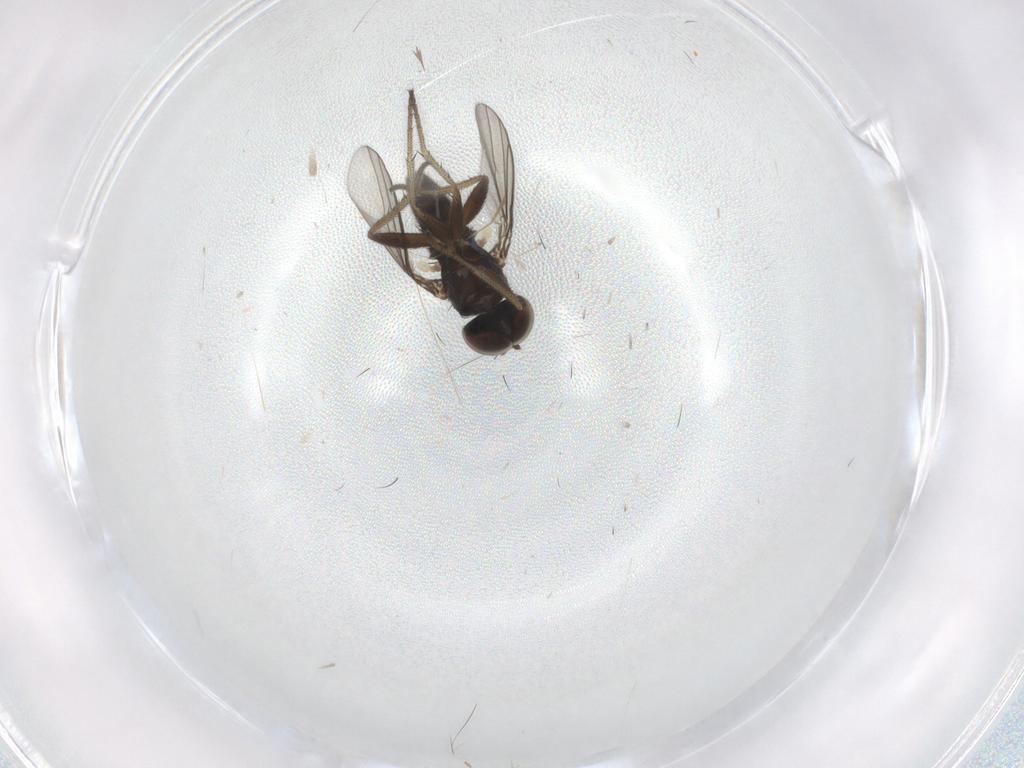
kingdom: Animalia
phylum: Arthropoda
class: Insecta
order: Diptera
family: Dolichopodidae
